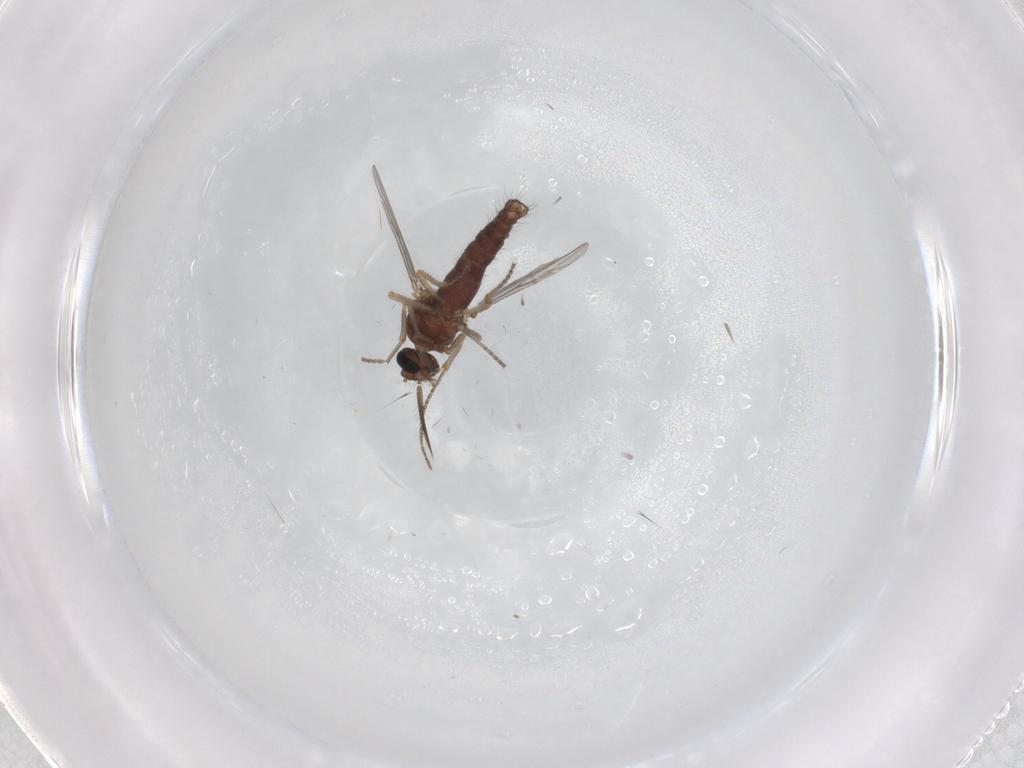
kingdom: Animalia
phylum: Arthropoda
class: Insecta
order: Diptera
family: Ceratopogonidae
